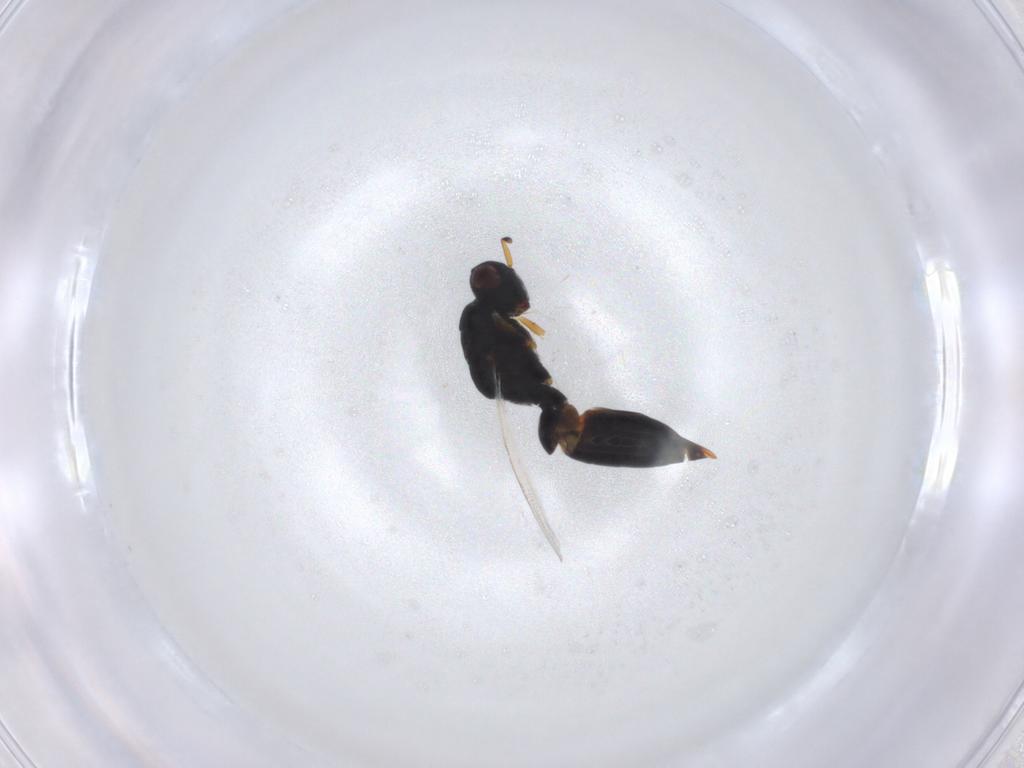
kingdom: Animalia
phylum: Arthropoda
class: Insecta
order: Hymenoptera
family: Eurytomidae
